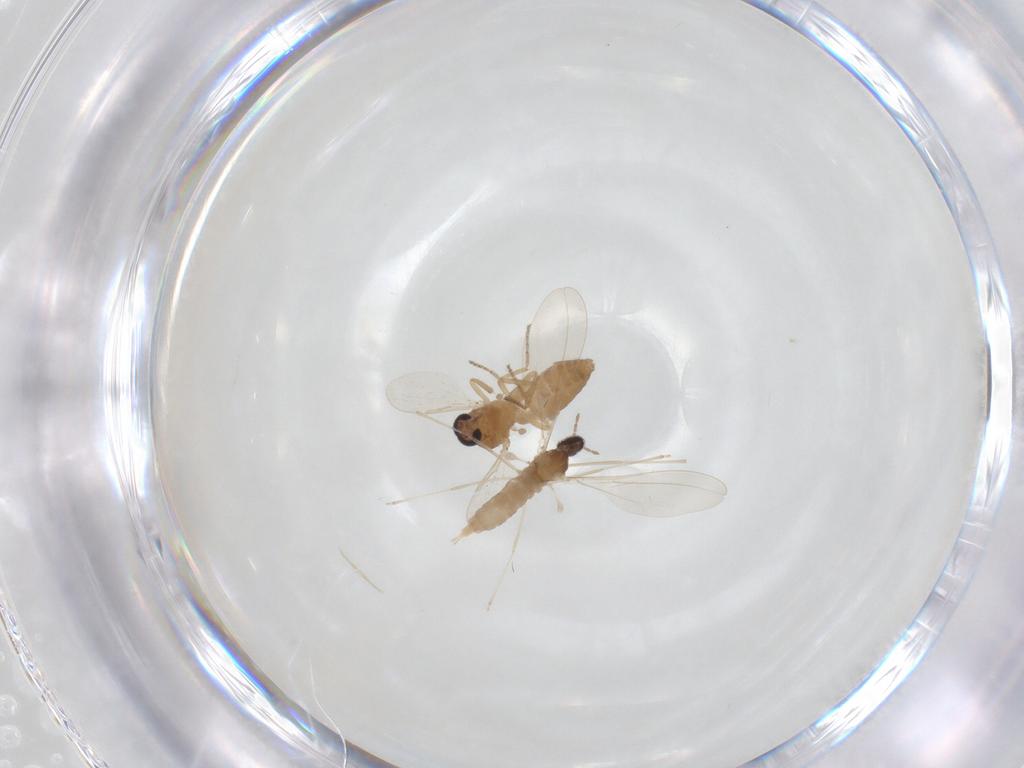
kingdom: Animalia
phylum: Arthropoda
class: Insecta
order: Diptera
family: Ceratopogonidae
